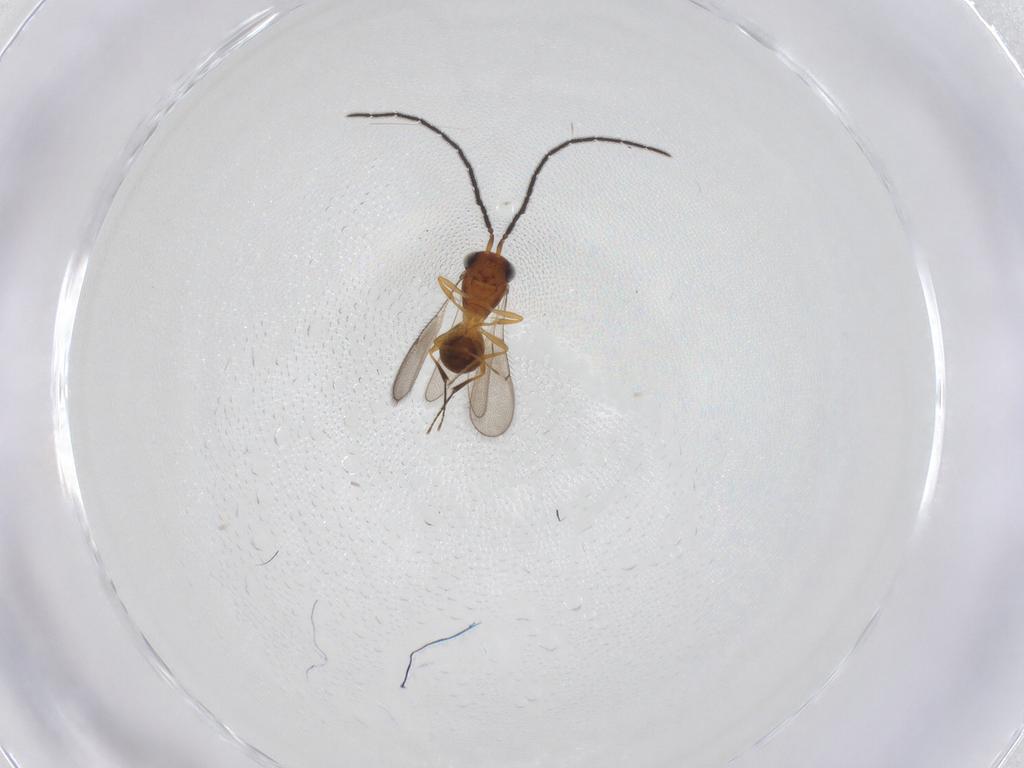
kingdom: Animalia
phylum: Arthropoda
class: Insecta
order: Hymenoptera
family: Scelionidae
